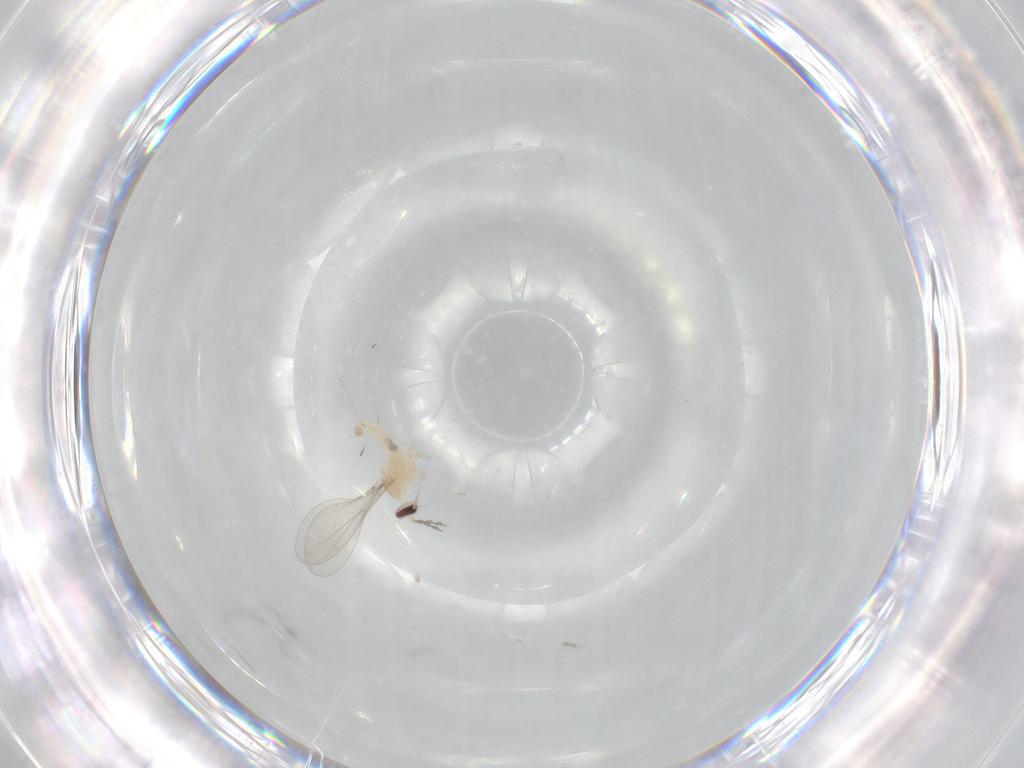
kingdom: Animalia
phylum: Arthropoda
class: Insecta
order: Diptera
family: Cecidomyiidae
